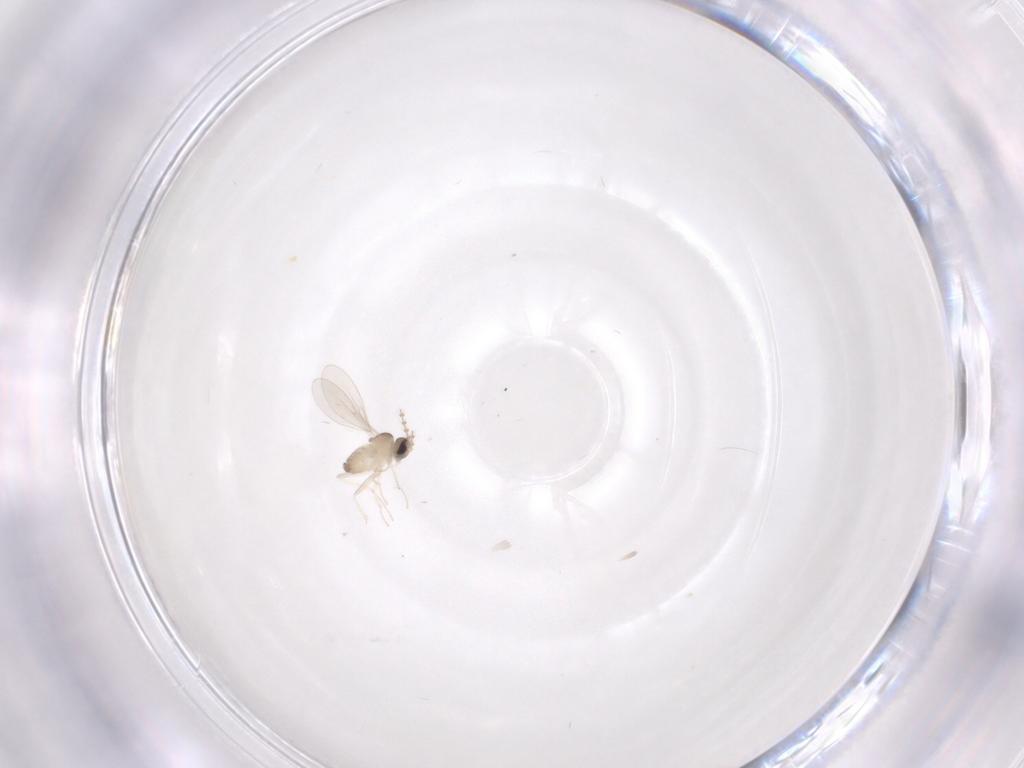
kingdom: Animalia
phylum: Arthropoda
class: Insecta
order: Diptera
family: Cecidomyiidae
